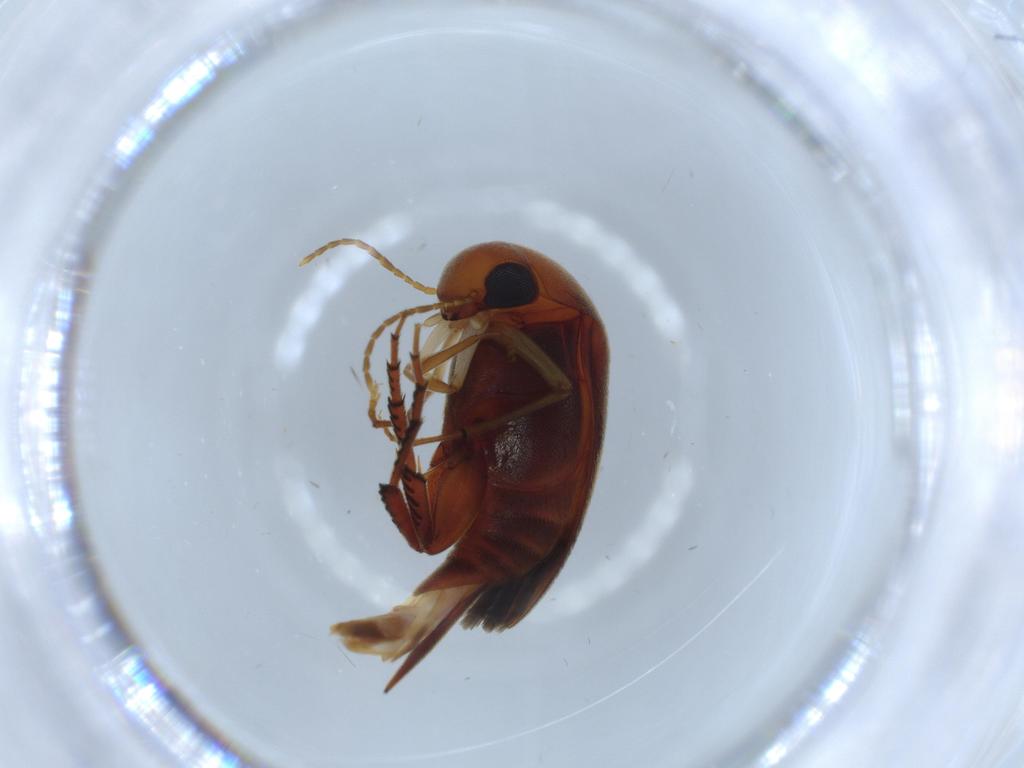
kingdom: Animalia
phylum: Arthropoda
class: Insecta
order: Coleoptera
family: Mordellidae
